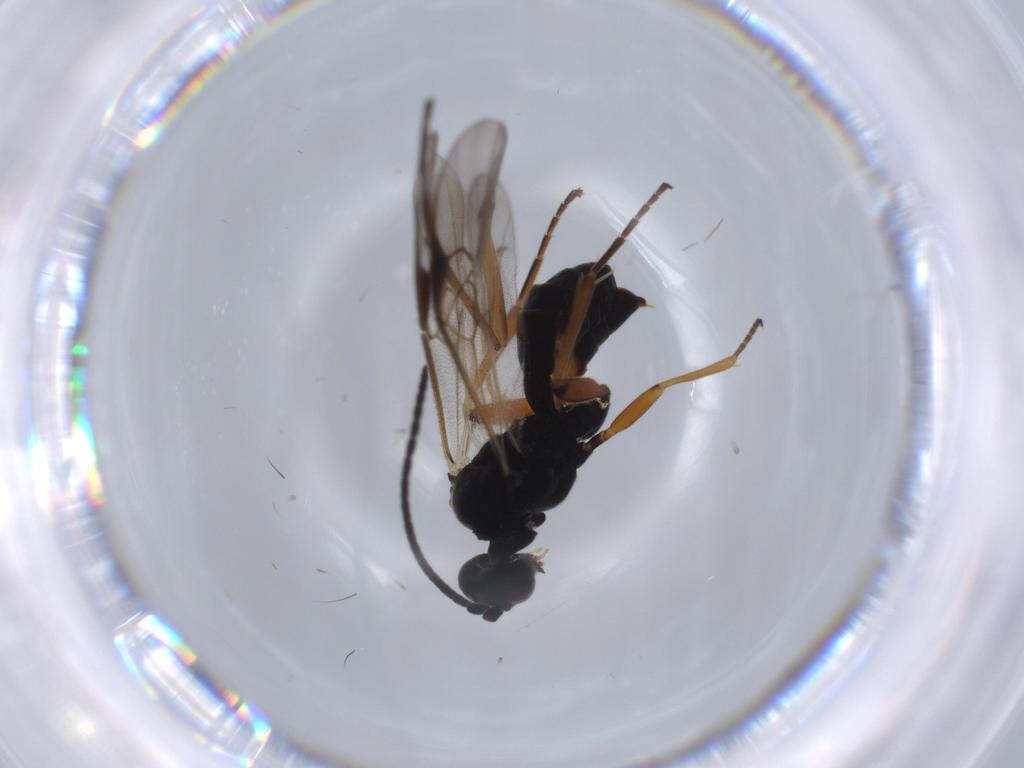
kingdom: Animalia
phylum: Arthropoda
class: Insecta
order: Hymenoptera
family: Braconidae
